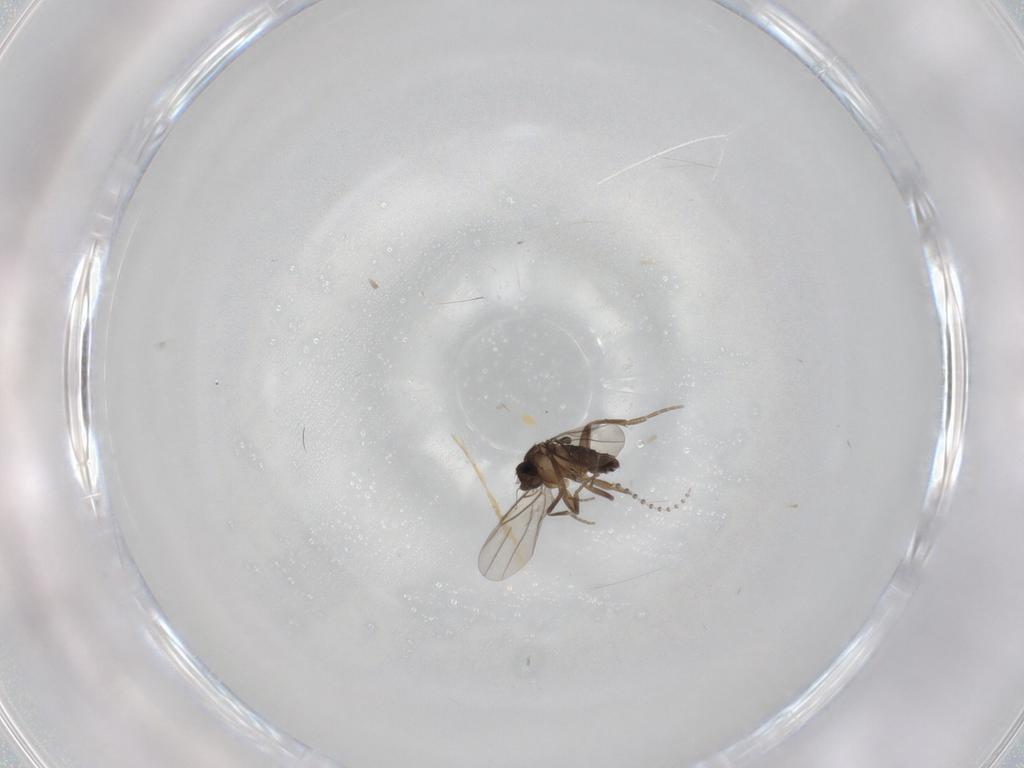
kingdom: Animalia
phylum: Arthropoda
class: Insecta
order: Diptera
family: Phoridae
